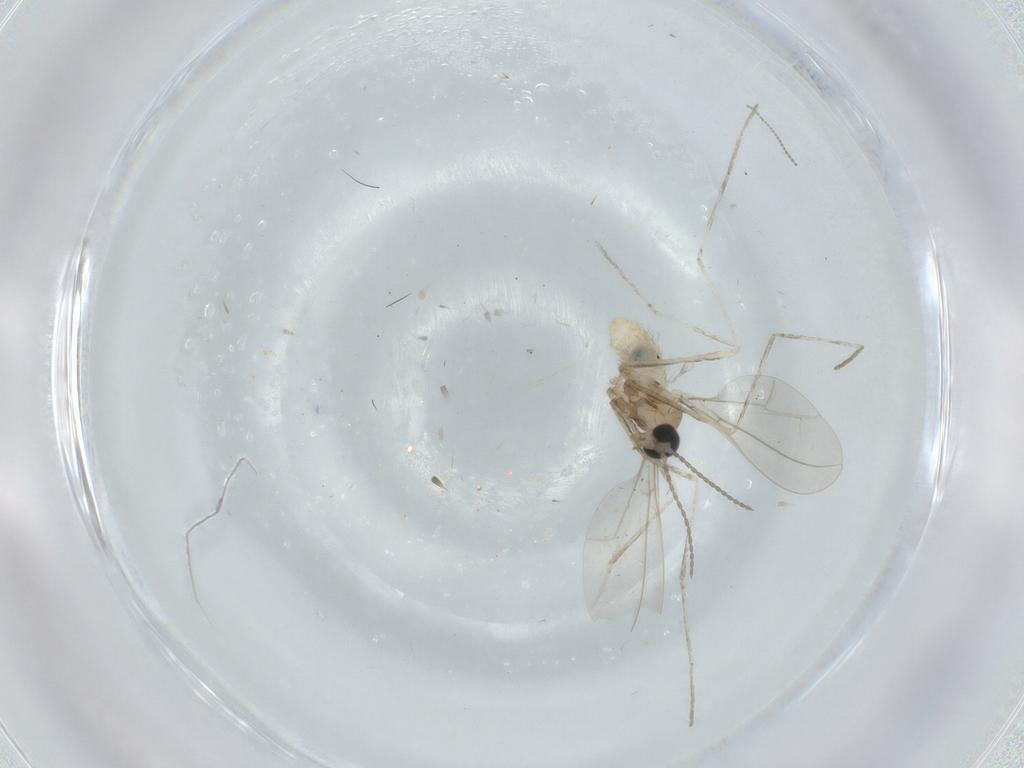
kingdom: Animalia
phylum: Arthropoda
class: Insecta
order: Diptera
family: Cecidomyiidae
